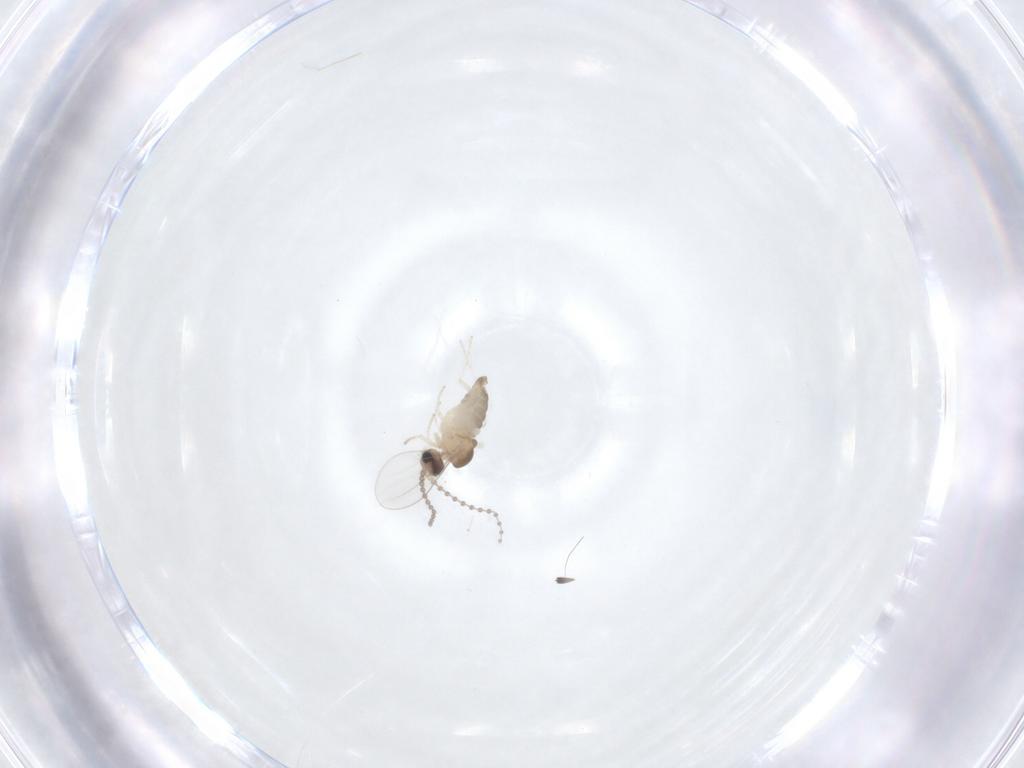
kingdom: Animalia
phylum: Arthropoda
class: Insecta
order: Diptera
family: Cecidomyiidae
